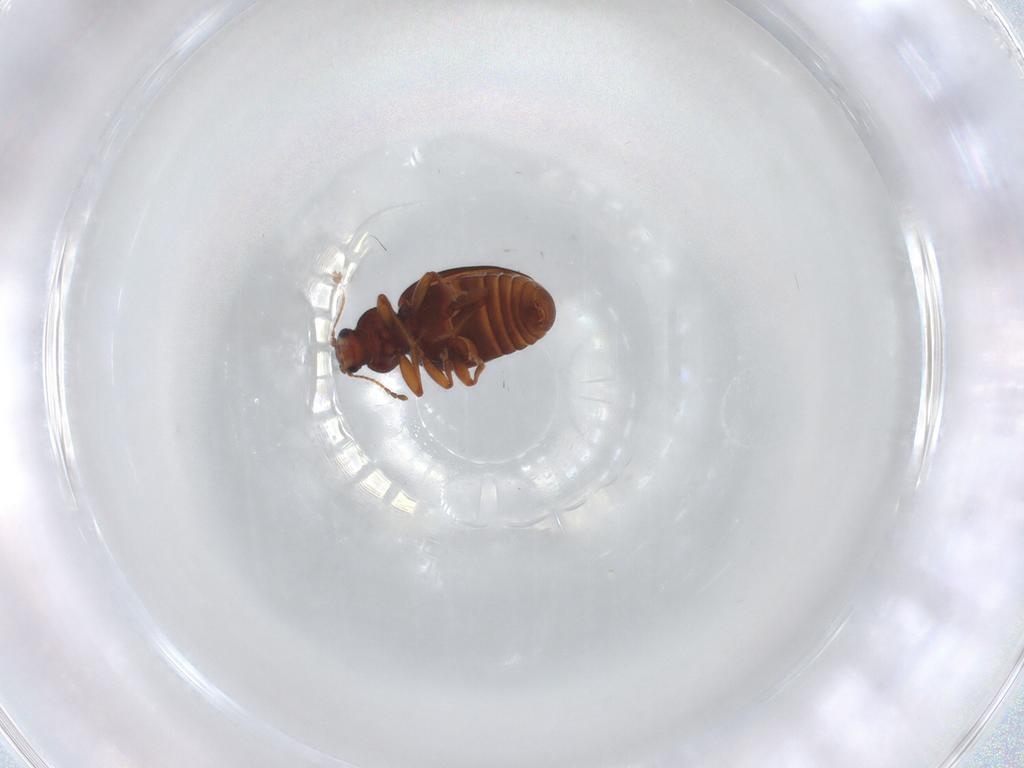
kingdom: Animalia
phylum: Arthropoda
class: Insecta
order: Coleoptera
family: Latridiidae
